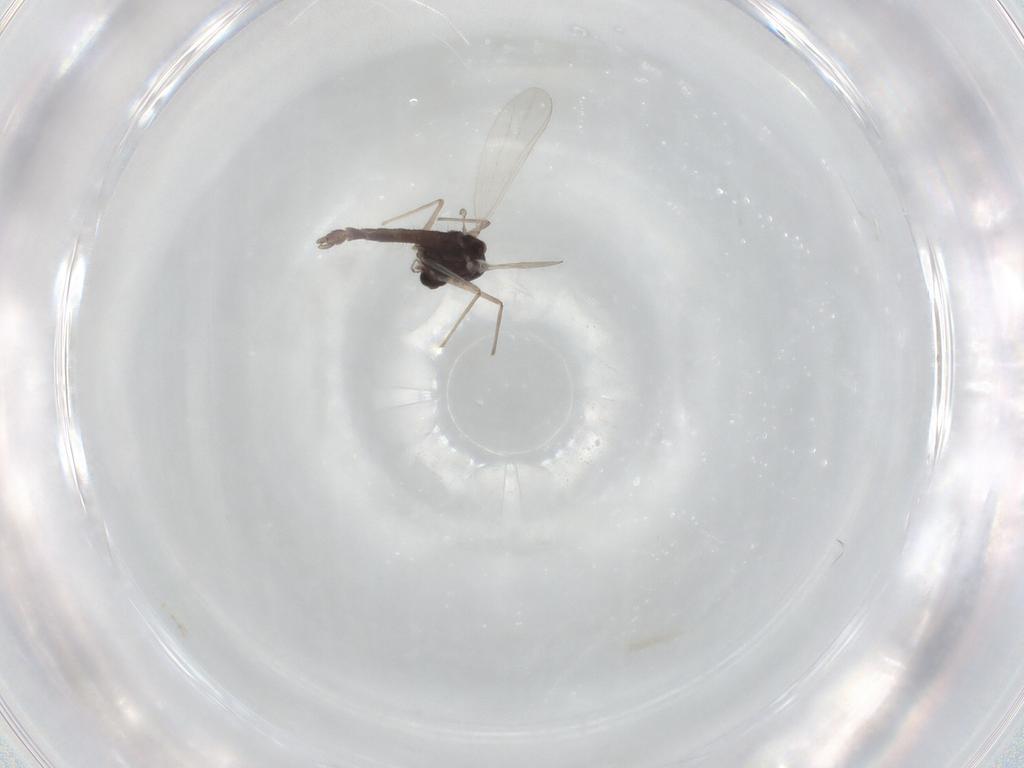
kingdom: Animalia
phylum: Arthropoda
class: Insecta
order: Diptera
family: Chironomidae
